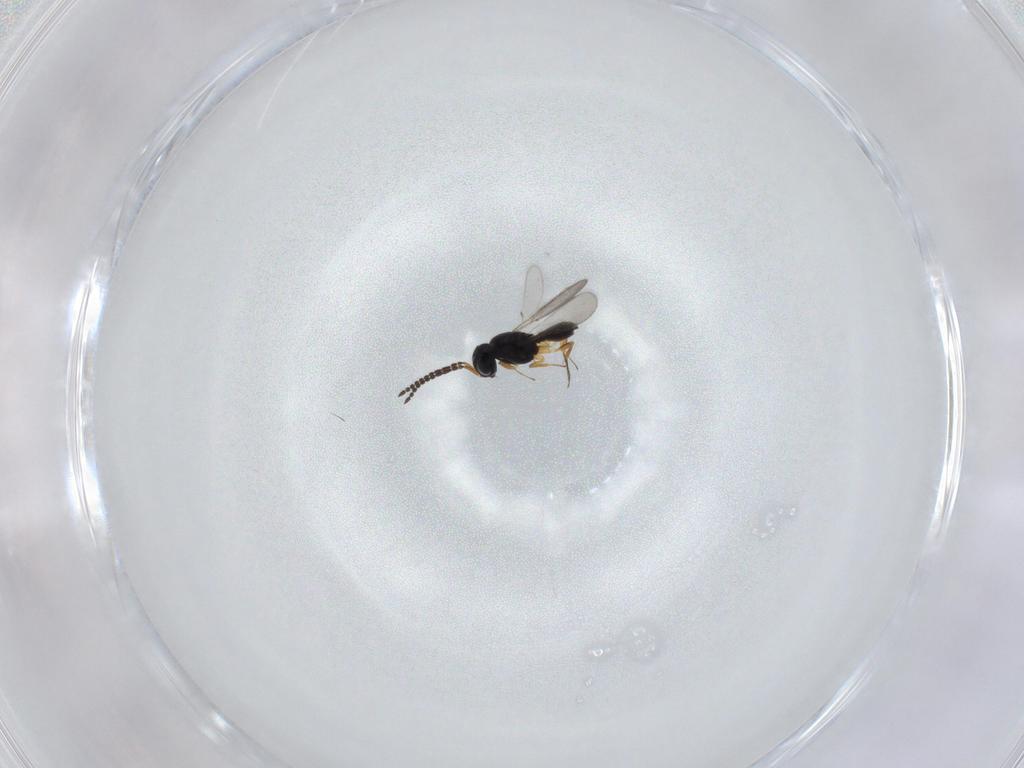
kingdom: Animalia
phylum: Arthropoda
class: Insecta
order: Hymenoptera
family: Scelionidae
